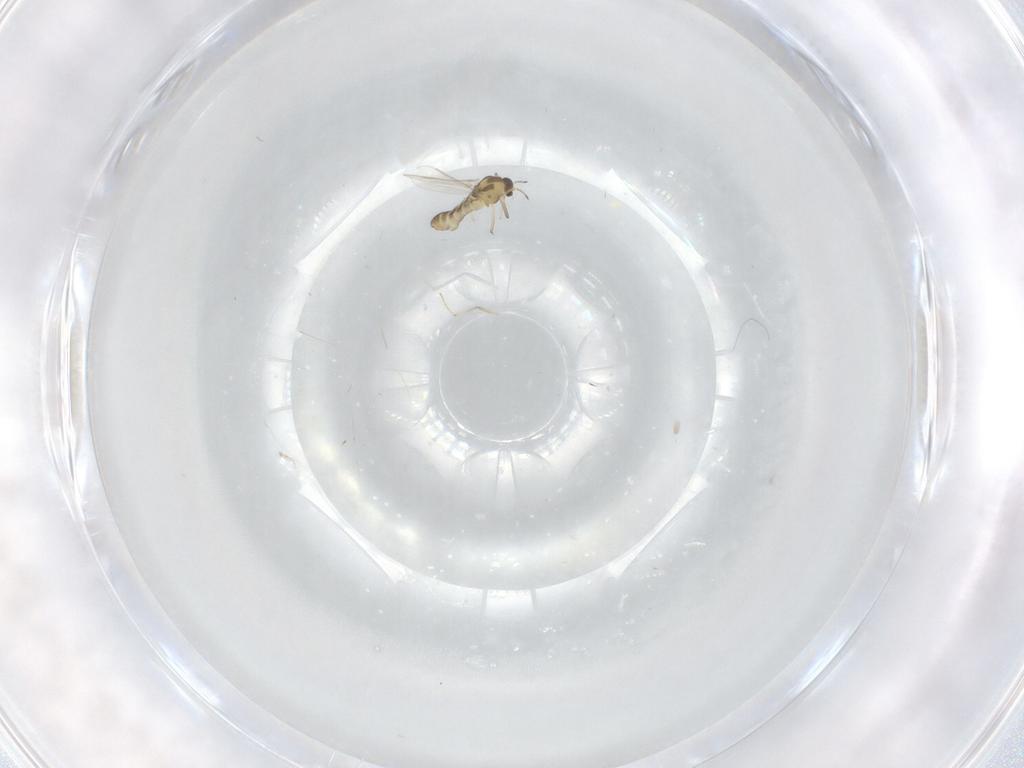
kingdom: Animalia
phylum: Arthropoda
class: Insecta
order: Diptera
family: Chironomidae
